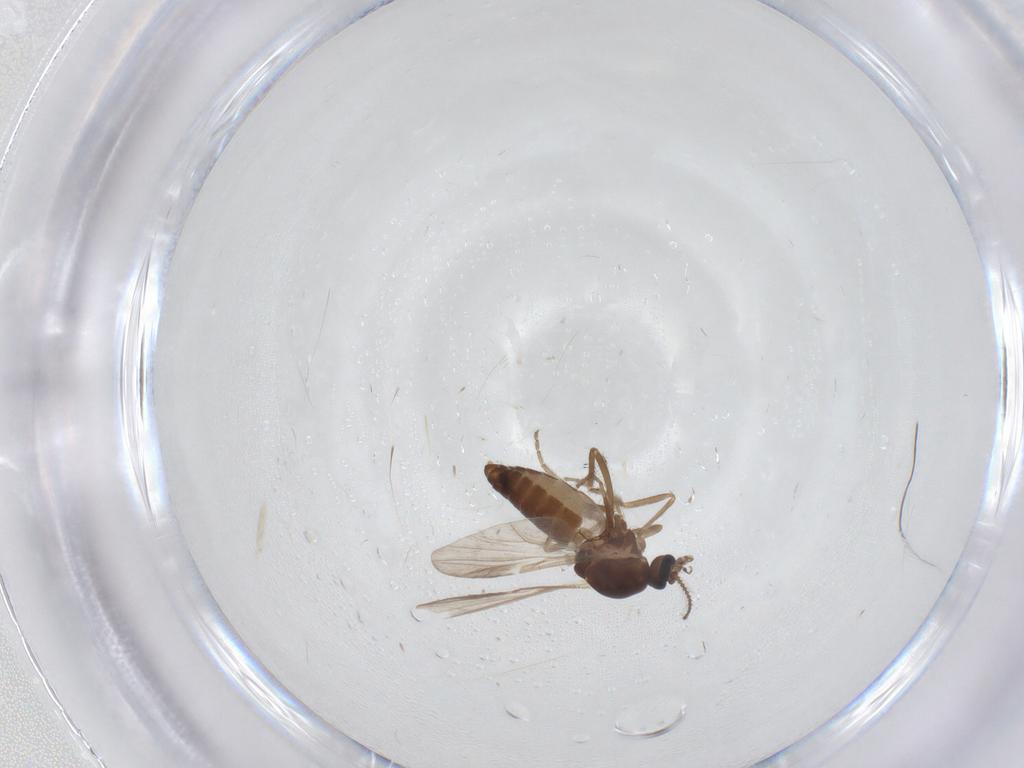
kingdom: Animalia
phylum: Arthropoda
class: Insecta
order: Diptera
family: Ceratopogonidae
